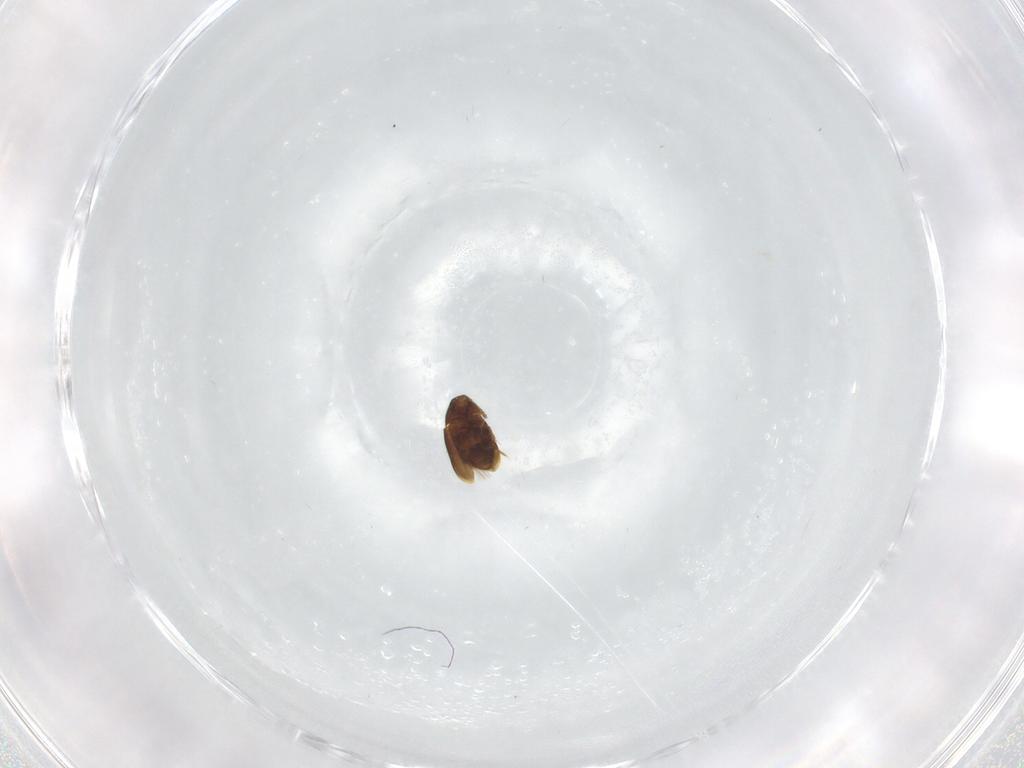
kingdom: Animalia
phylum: Arthropoda
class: Insecta
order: Coleoptera
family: Ptiliidae
